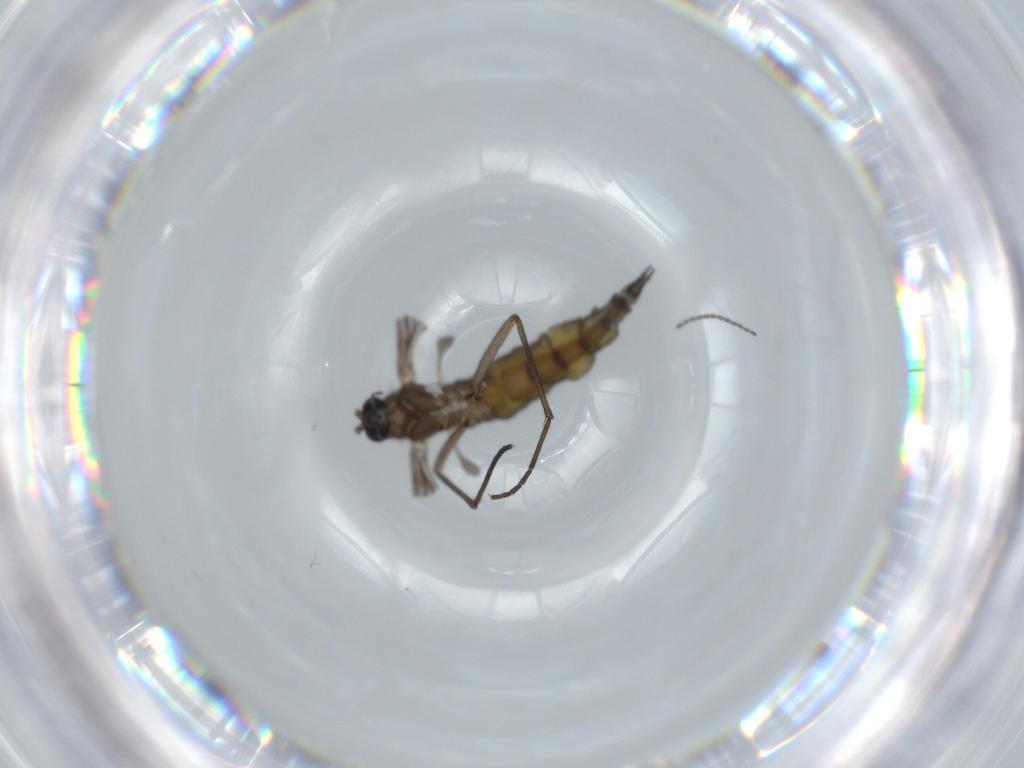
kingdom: Animalia
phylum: Arthropoda
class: Insecta
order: Diptera
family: Sciaridae
